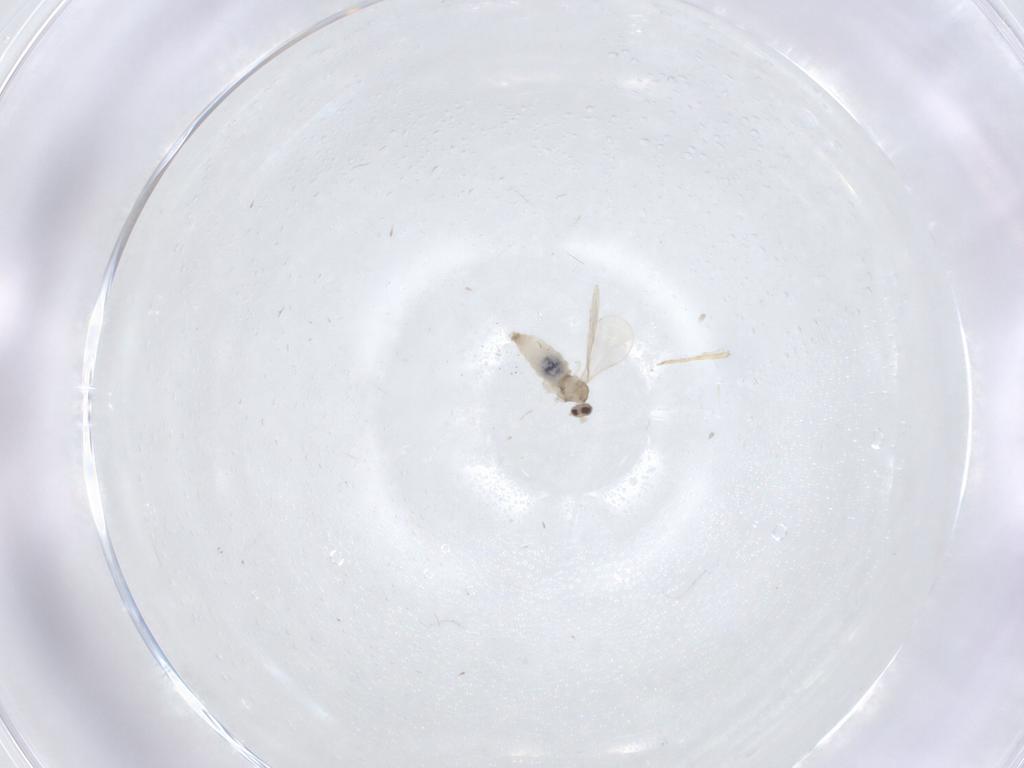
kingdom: Animalia
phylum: Arthropoda
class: Insecta
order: Diptera
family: Cecidomyiidae
